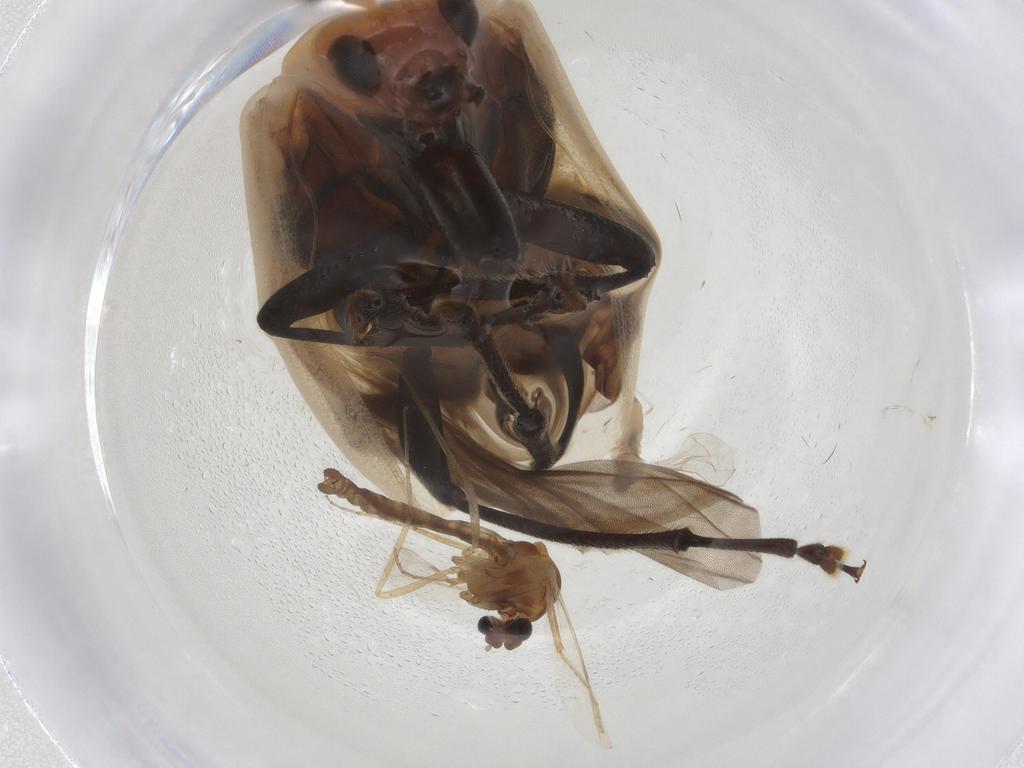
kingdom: Animalia
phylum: Arthropoda
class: Insecta
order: Coleoptera
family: Chrysomelidae
